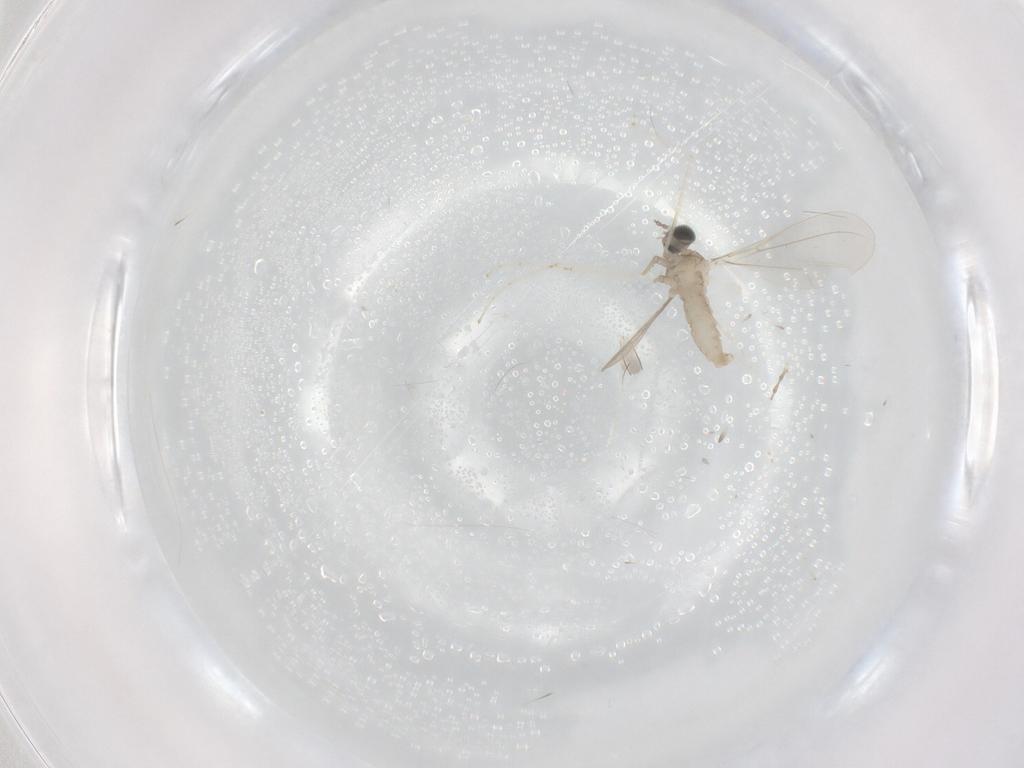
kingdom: Animalia
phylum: Arthropoda
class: Insecta
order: Diptera
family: Cecidomyiidae
